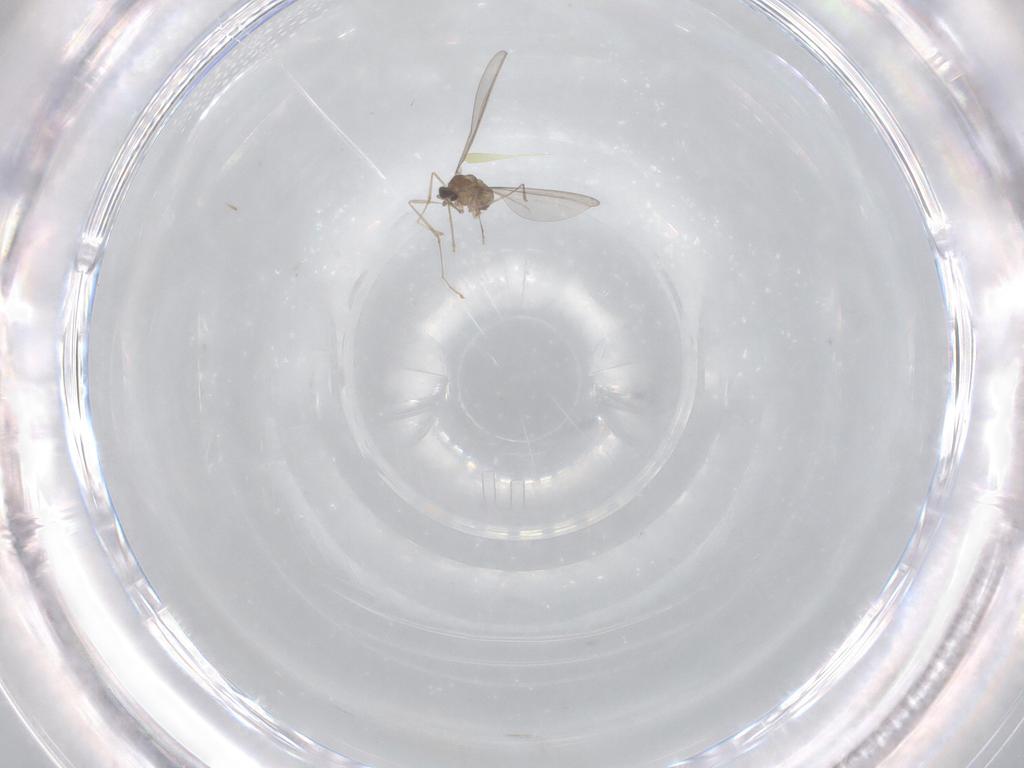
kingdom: Animalia
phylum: Arthropoda
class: Insecta
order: Diptera
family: Cecidomyiidae
